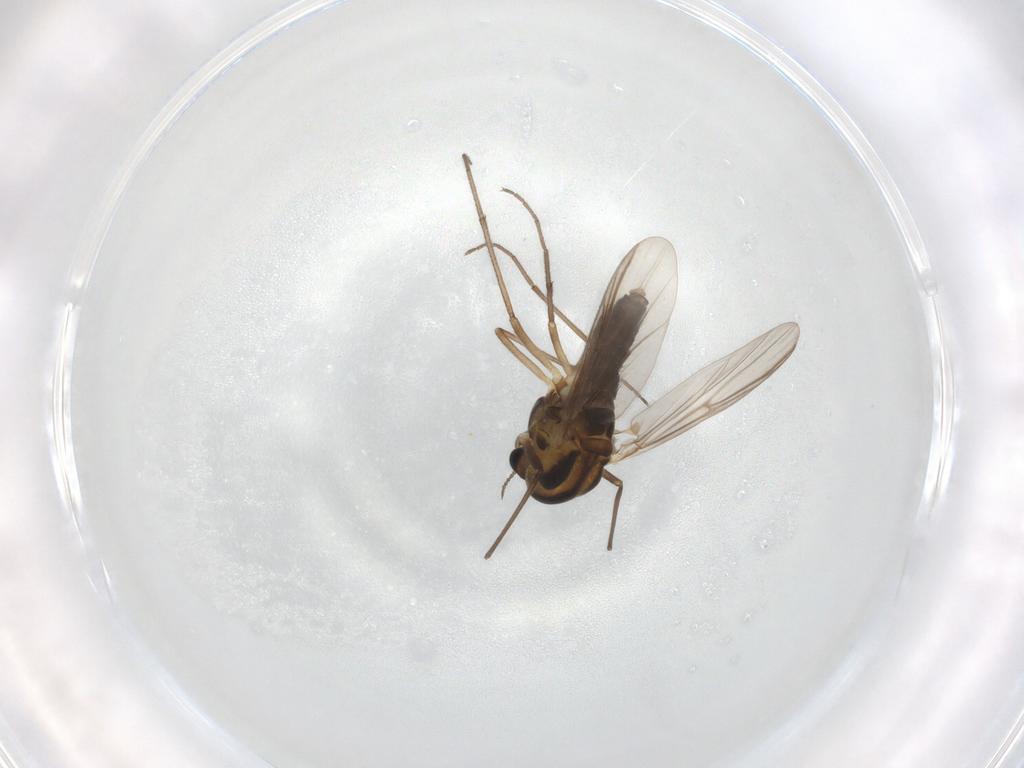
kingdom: Animalia
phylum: Arthropoda
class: Insecta
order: Diptera
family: Chironomidae
